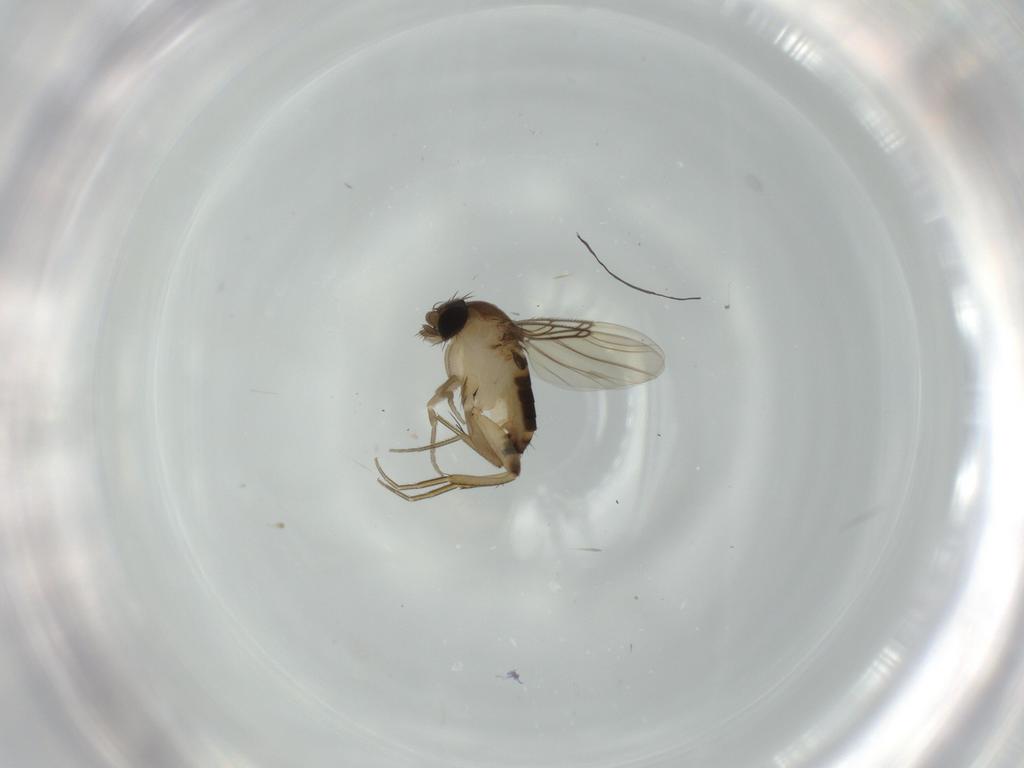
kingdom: Animalia
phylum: Arthropoda
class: Insecta
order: Diptera
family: Phoridae
